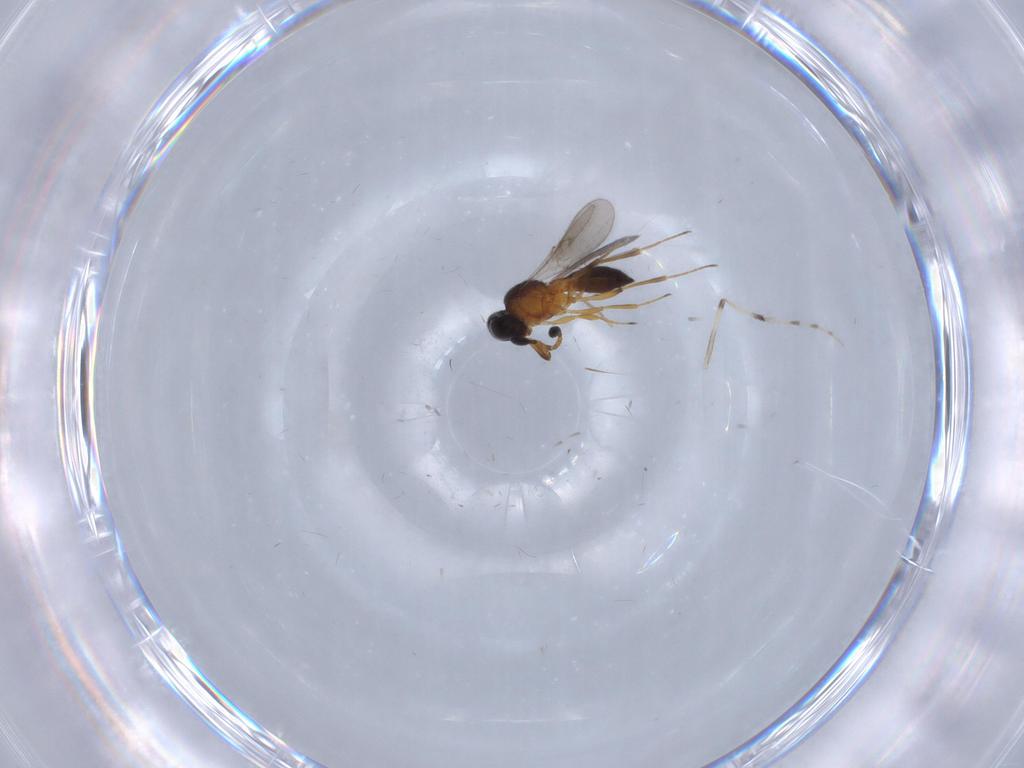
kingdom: Animalia
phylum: Arthropoda
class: Insecta
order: Hymenoptera
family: Scelionidae
